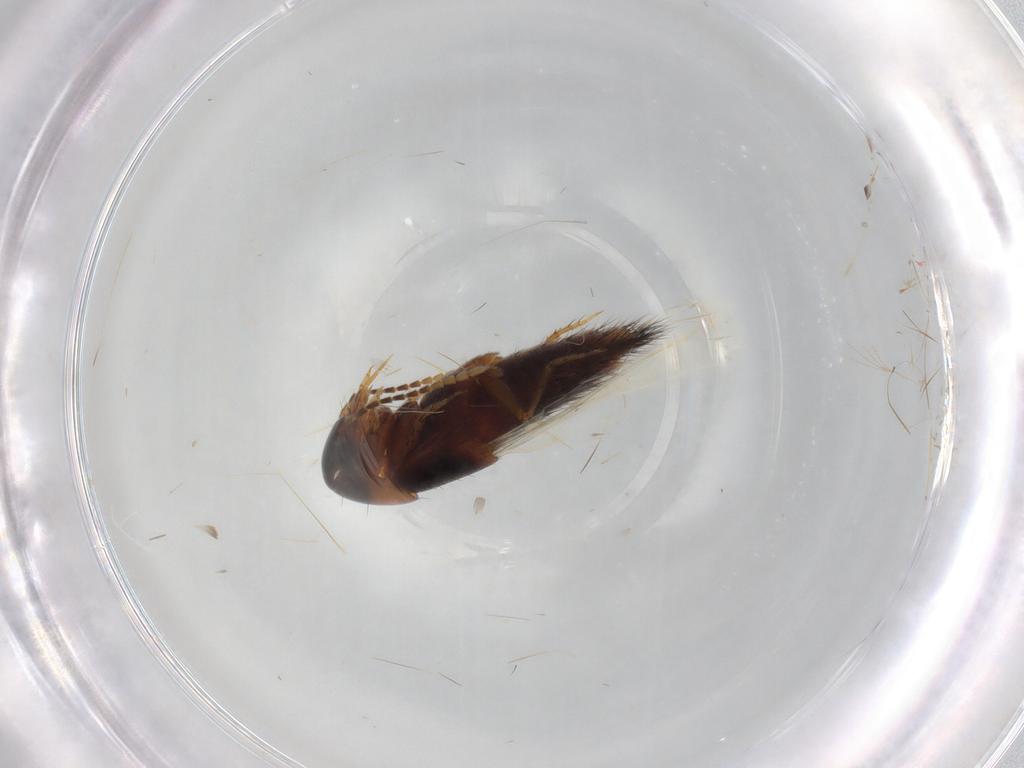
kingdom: Animalia
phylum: Arthropoda
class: Insecta
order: Coleoptera
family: Staphylinidae
